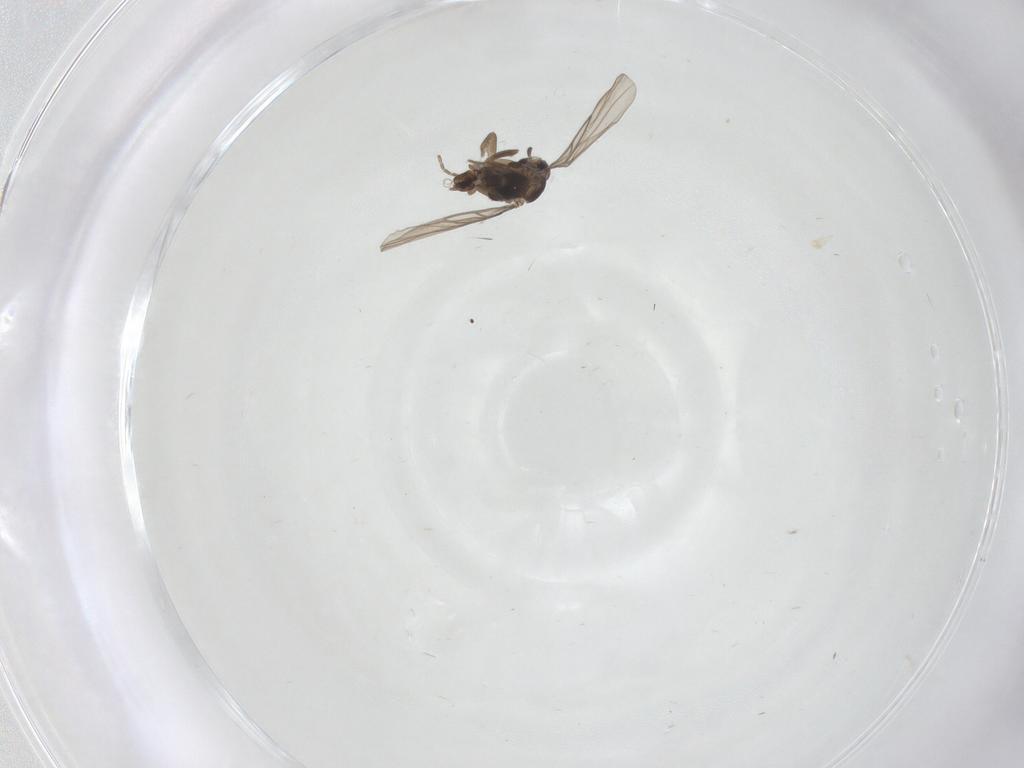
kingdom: Animalia
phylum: Arthropoda
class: Insecta
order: Diptera
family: Cecidomyiidae
